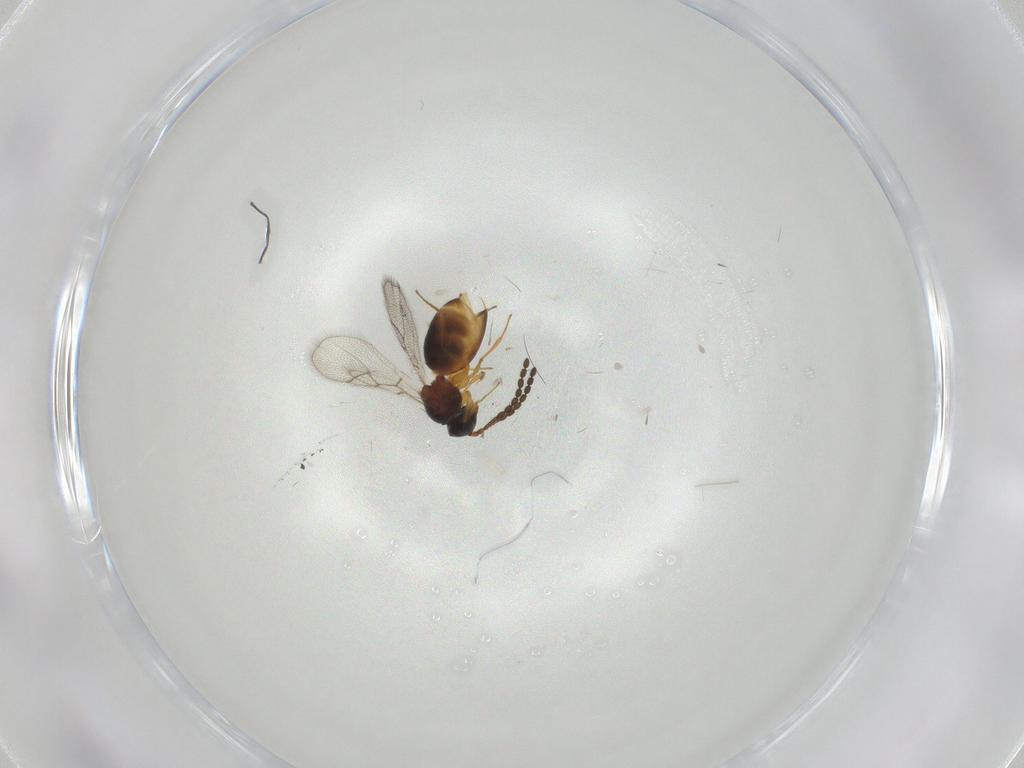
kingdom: Animalia
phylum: Arthropoda
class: Insecta
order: Hymenoptera
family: Figitidae
